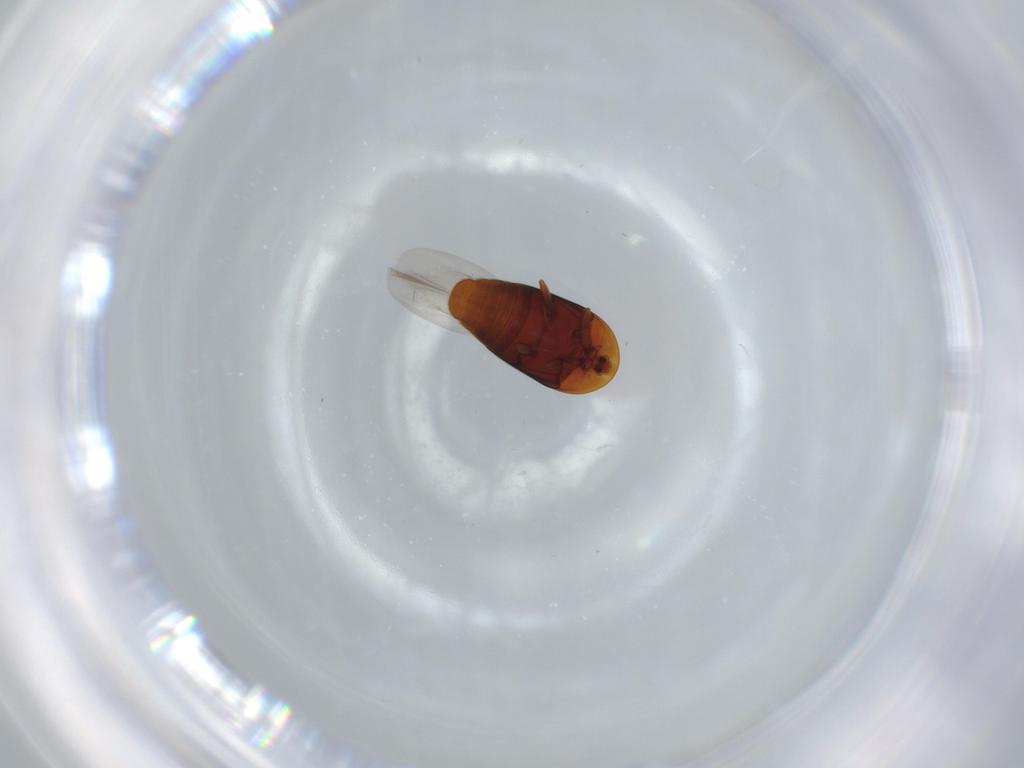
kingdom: Animalia
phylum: Arthropoda
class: Insecta
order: Coleoptera
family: Corylophidae
